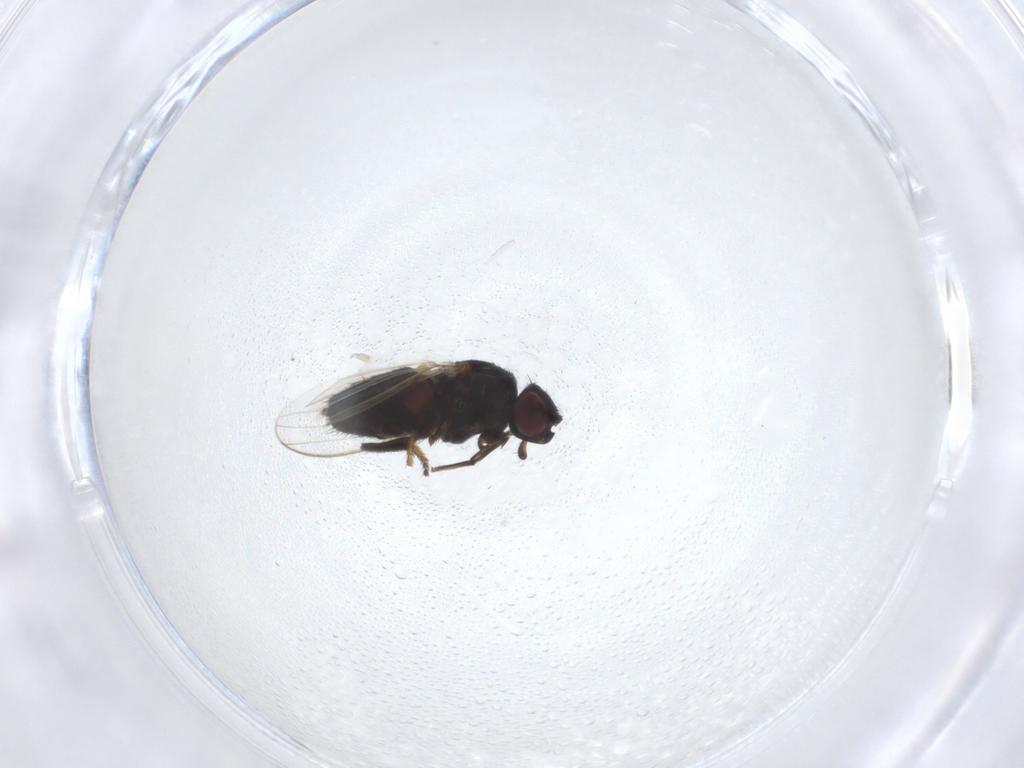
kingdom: Animalia
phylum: Arthropoda
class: Insecta
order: Diptera
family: Milichiidae
